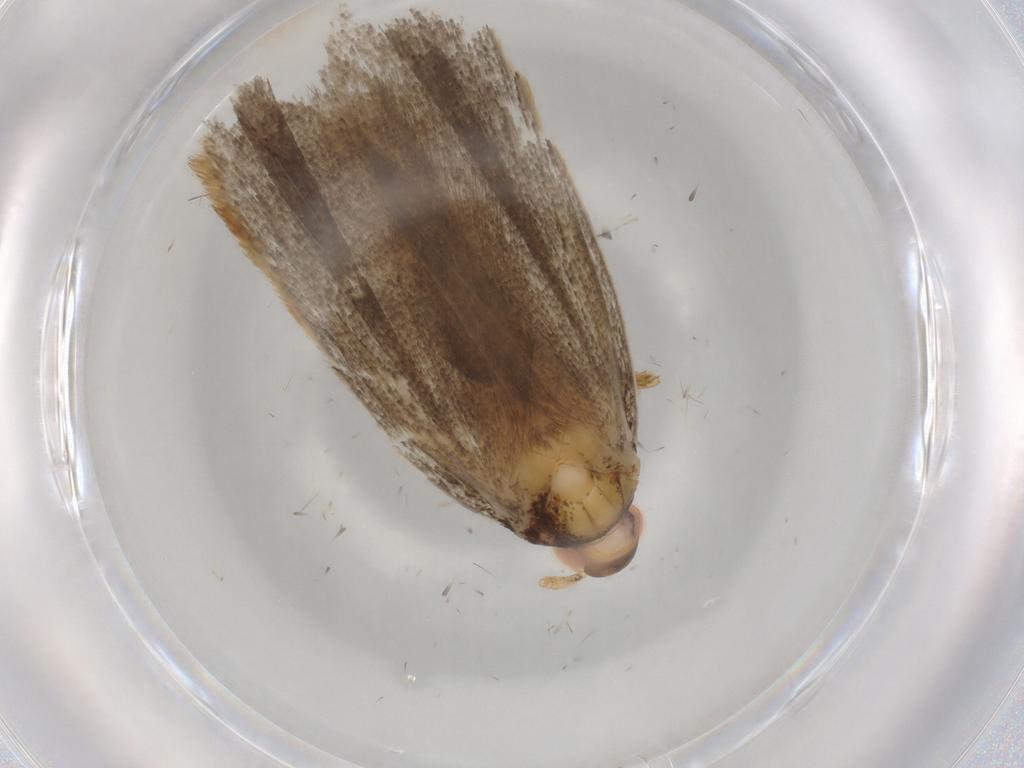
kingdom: Animalia
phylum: Arthropoda
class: Insecta
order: Lepidoptera
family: Lecithoceridae
